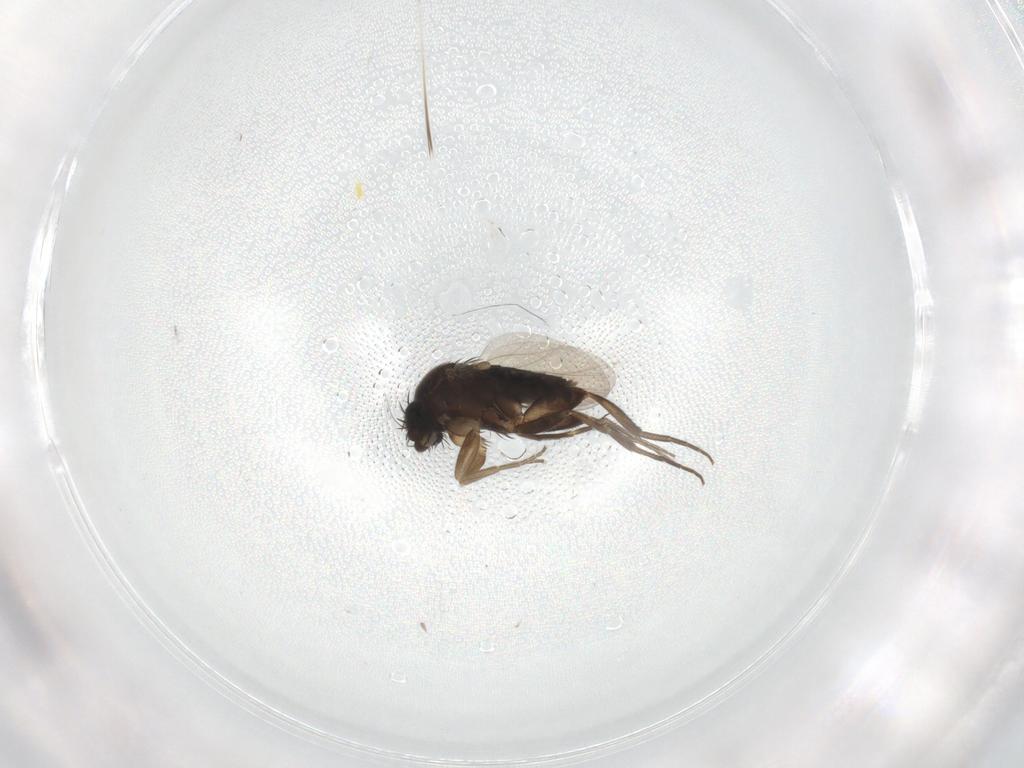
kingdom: Animalia
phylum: Arthropoda
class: Insecta
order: Diptera
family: Phoridae
